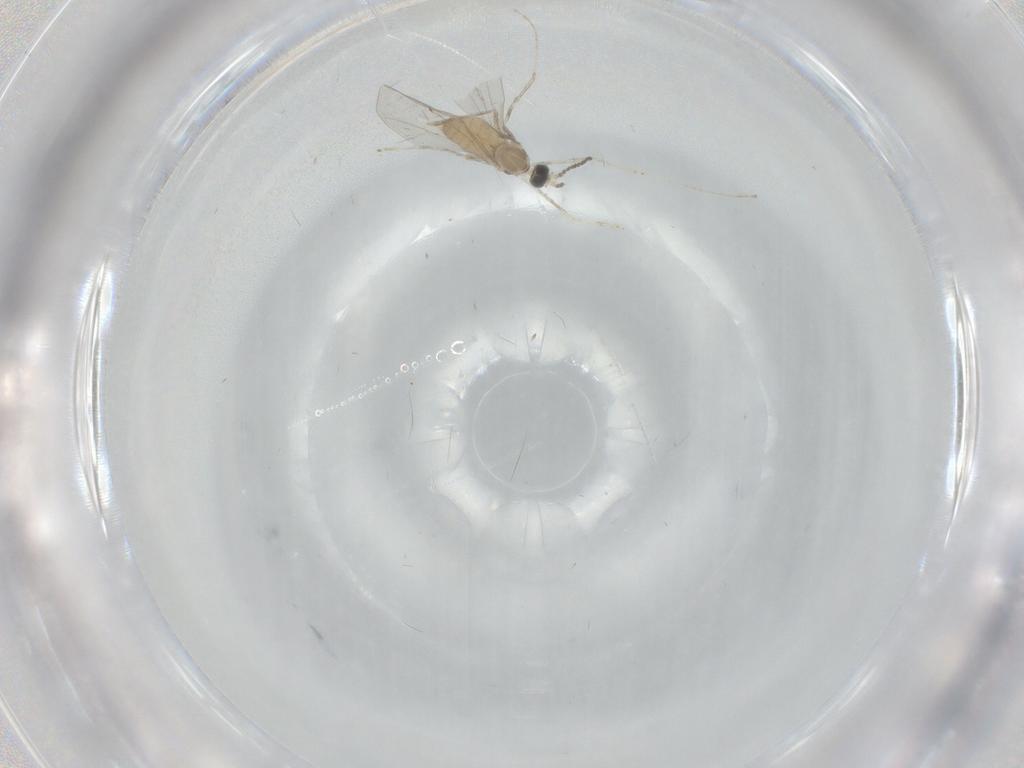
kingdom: Animalia
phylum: Arthropoda
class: Insecta
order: Diptera
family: Cecidomyiidae
